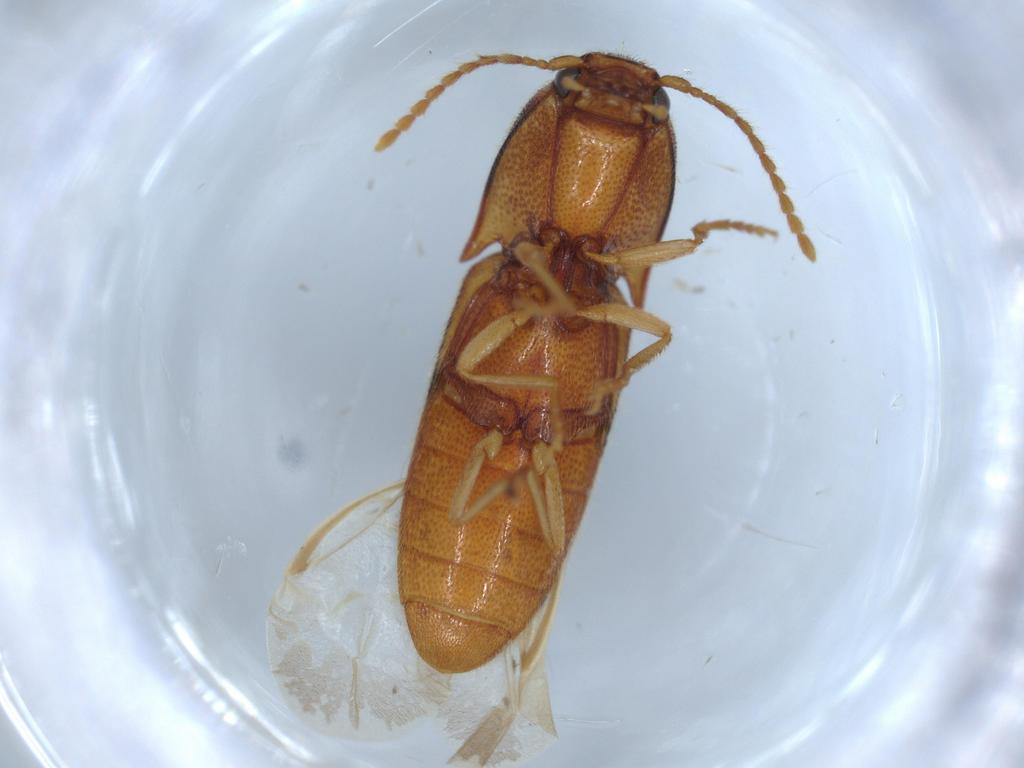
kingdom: Animalia
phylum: Arthropoda
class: Insecta
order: Coleoptera
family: Elateridae
